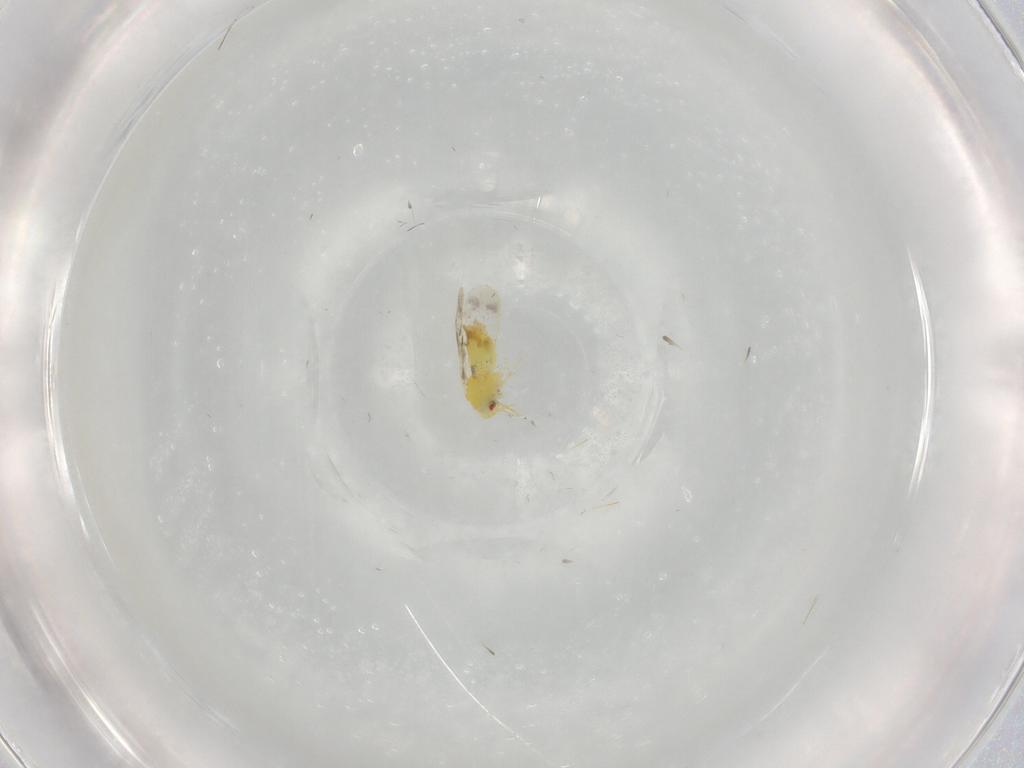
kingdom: Animalia
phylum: Arthropoda
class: Insecta
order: Hemiptera
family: Aleyrodidae
